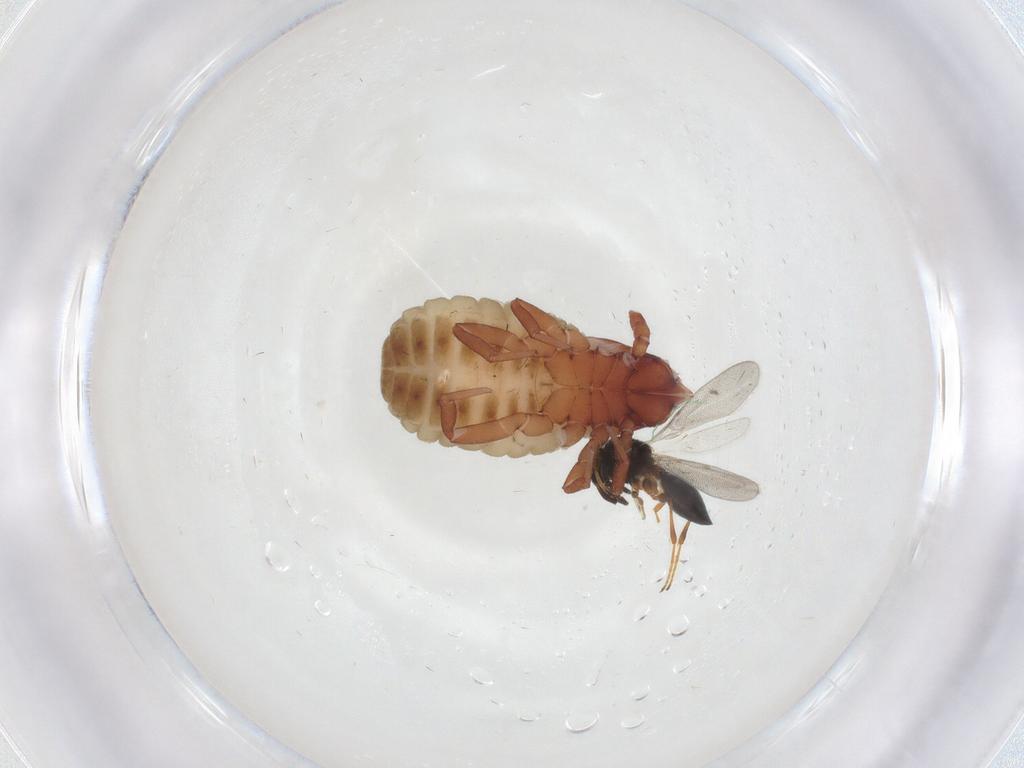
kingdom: Animalia
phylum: Arthropoda
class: Insecta
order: Hymenoptera
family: Platygastridae
